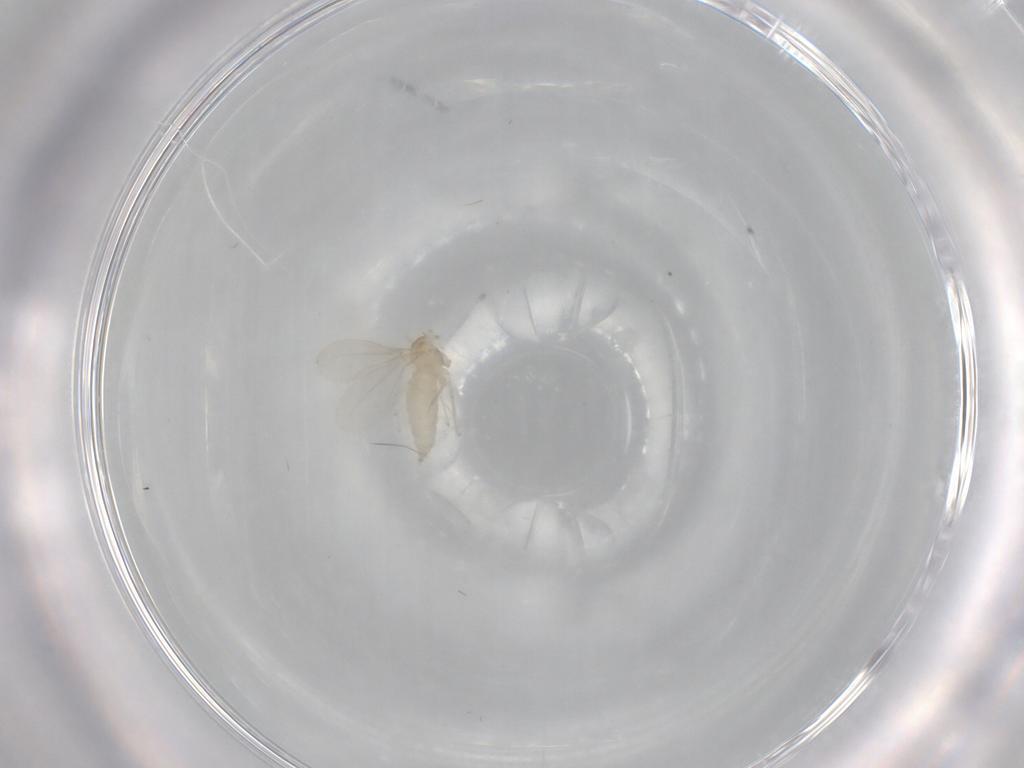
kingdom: Animalia
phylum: Arthropoda
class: Insecta
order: Diptera
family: Cecidomyiidae
